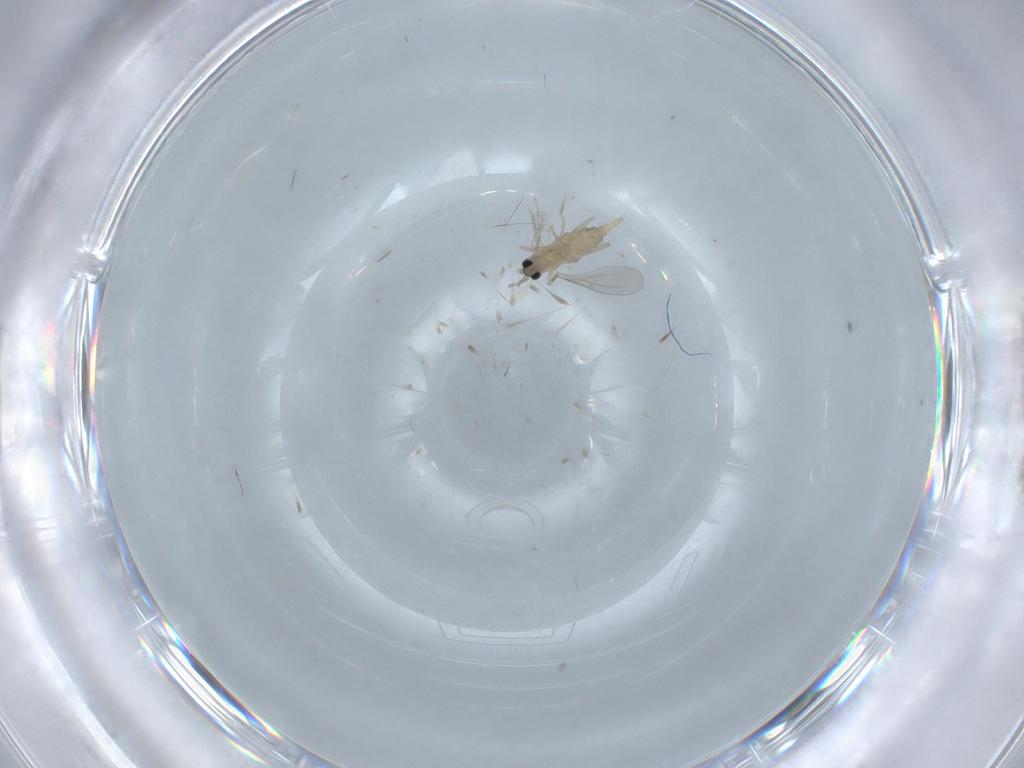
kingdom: Animalia
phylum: Arthropoda
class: Insecta
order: Diptera
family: Cecidomyiidae
